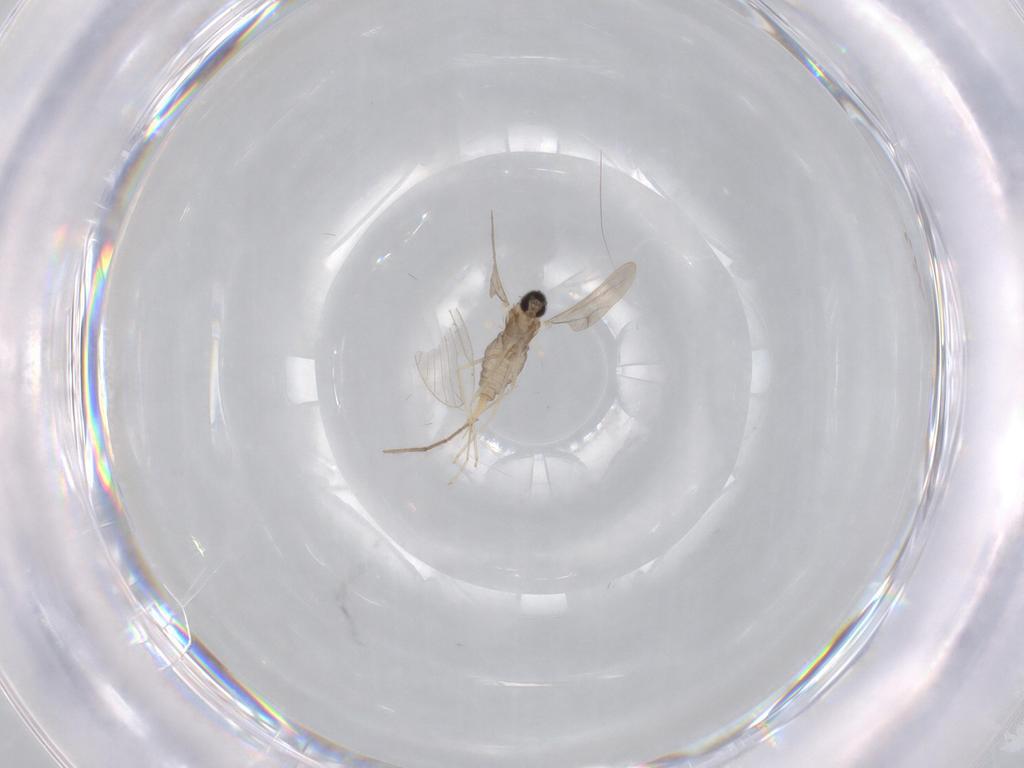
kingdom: Animalia
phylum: Arthropoda
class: Insecta
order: Diptera
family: Cecidomyiidae
